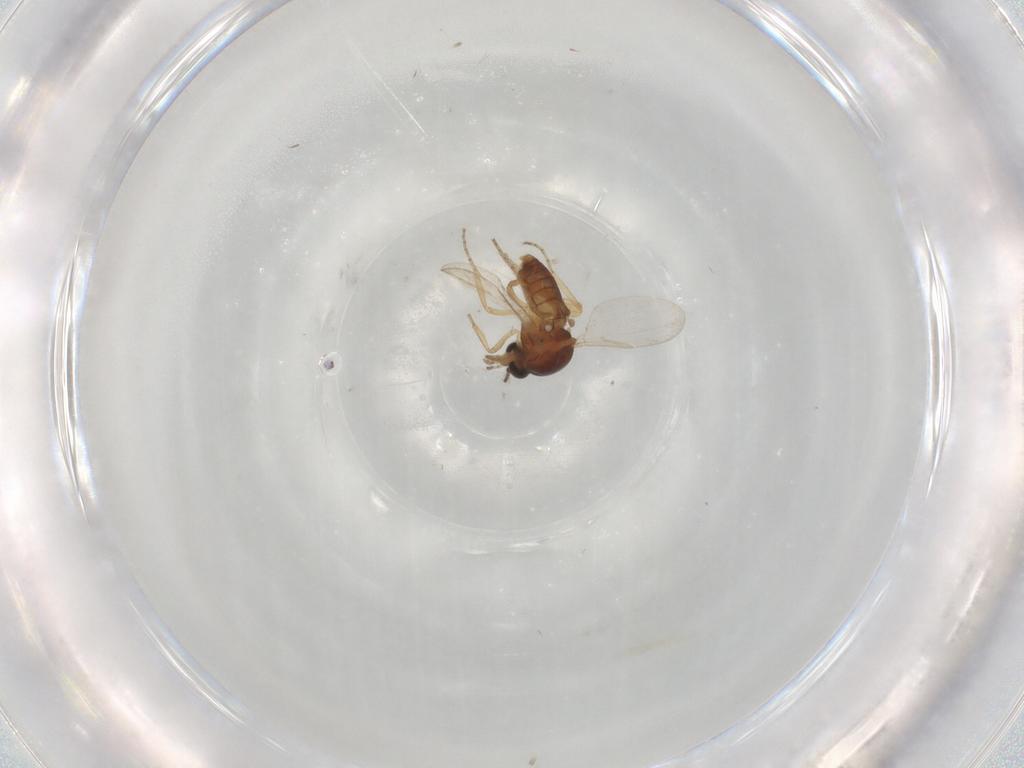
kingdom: Animalia
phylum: Arthropoda
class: Insecta
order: Diptera
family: Ceratopogonidae
